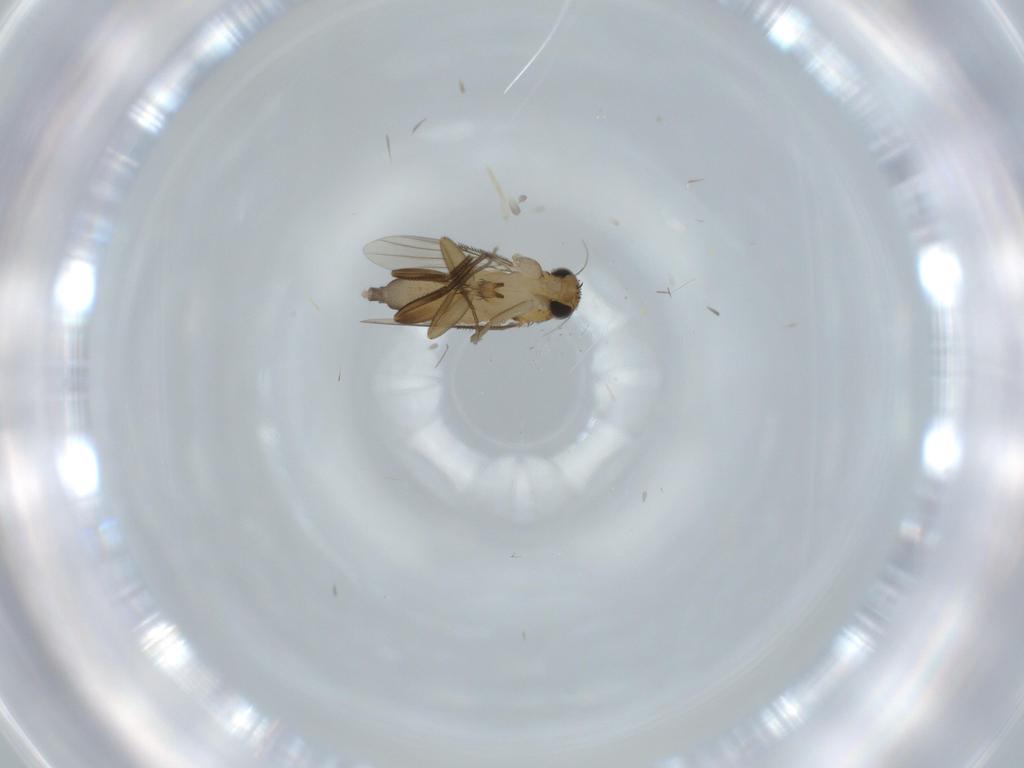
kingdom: Animalia
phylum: Arthropoda
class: Insecta
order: Diptera
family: Phoridae
